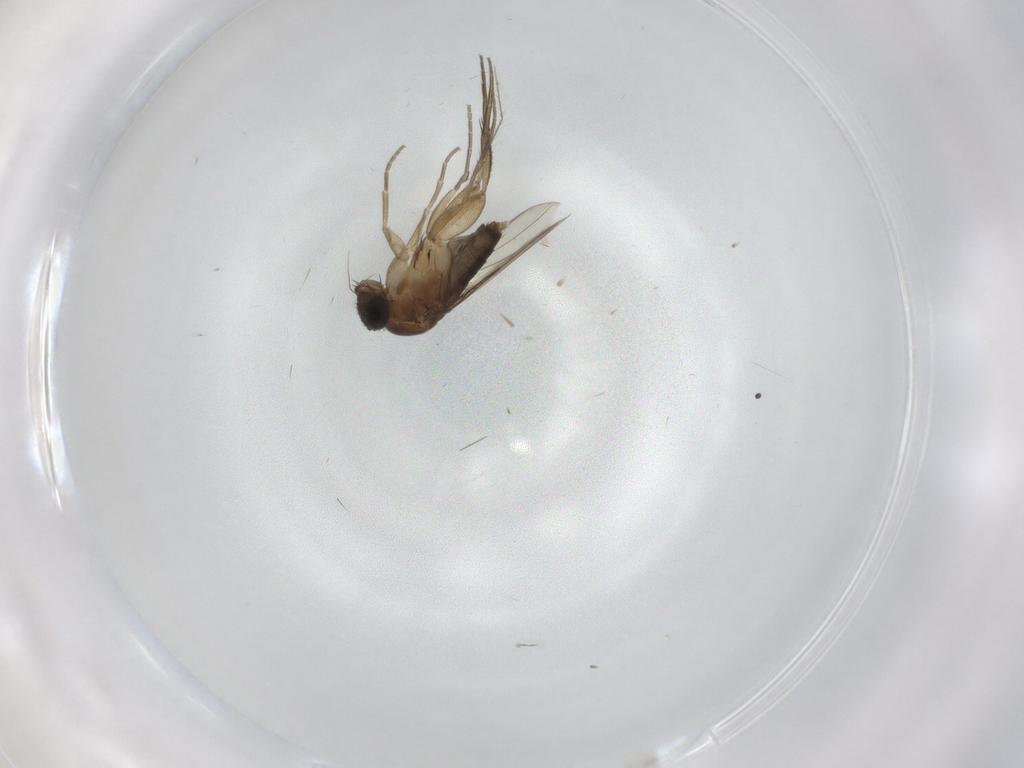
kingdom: Animalia
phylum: Arthropoda
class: Insecta
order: Diptera
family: Phoridae
